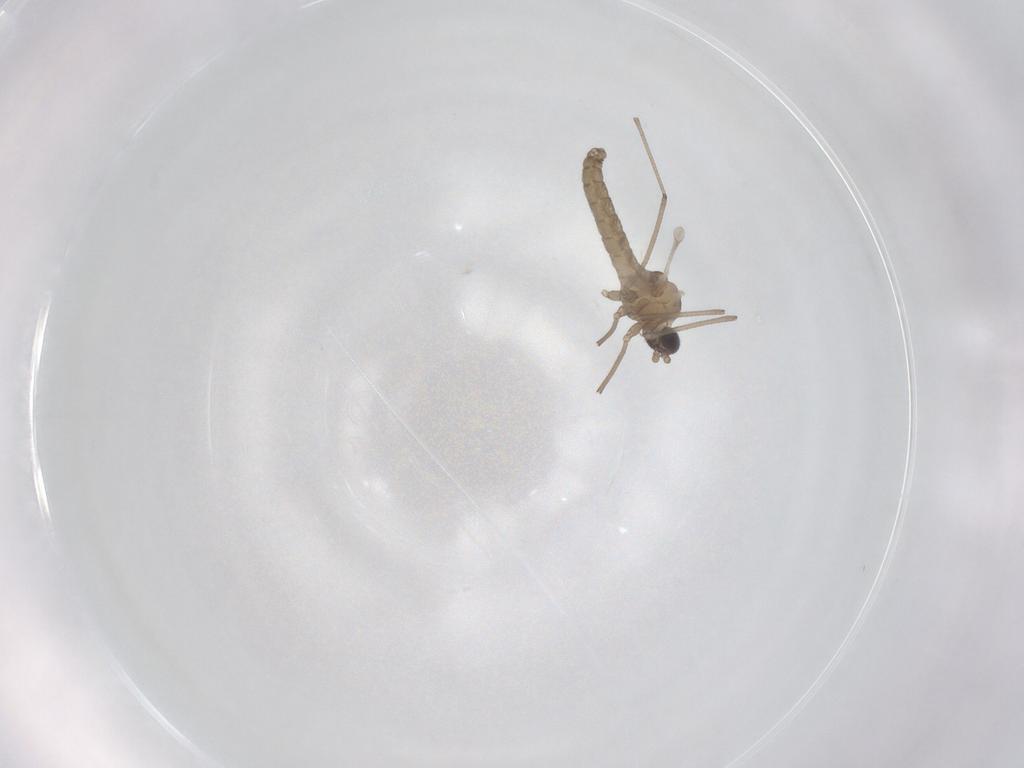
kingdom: Animalia
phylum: Arthropoda
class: Insecta
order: Diptera
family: Cecidomyiidae
